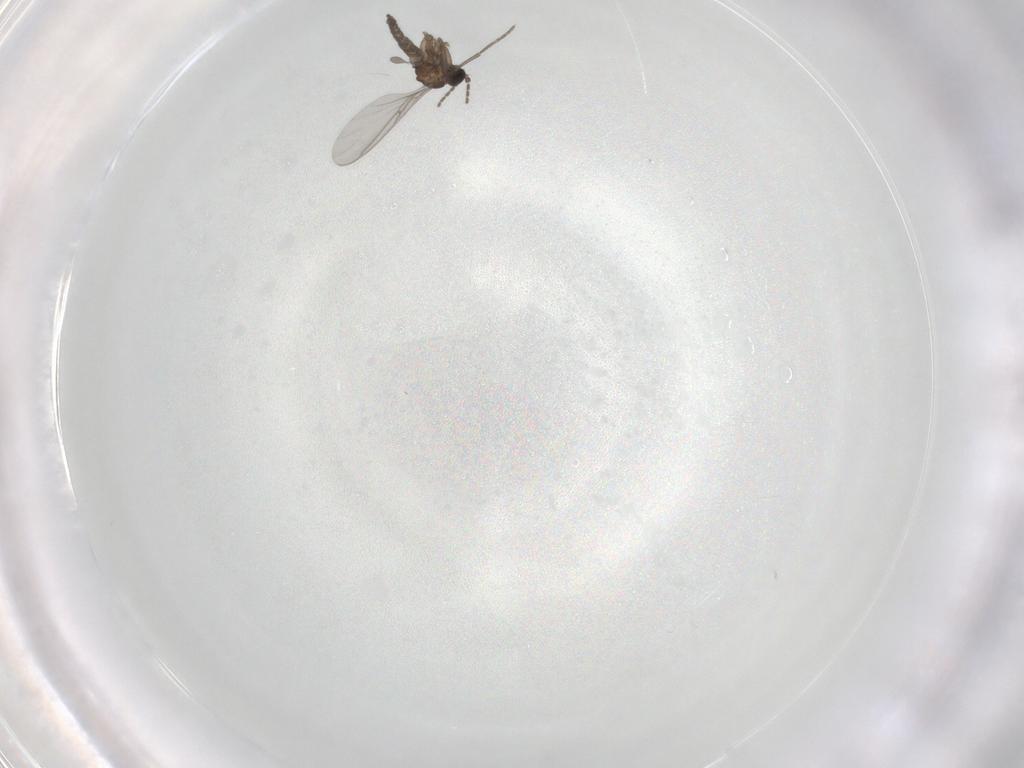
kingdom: Animalia
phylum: Arthropoda
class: Insecta
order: Diptera
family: Sciaridae
